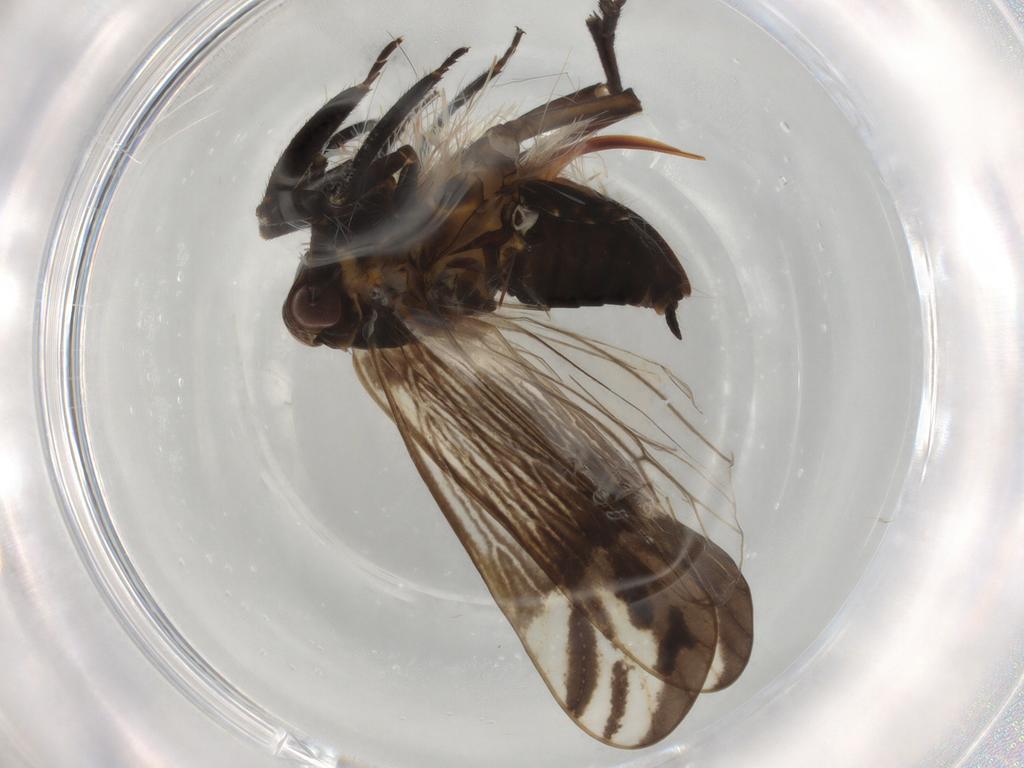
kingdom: Animalia
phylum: Arthropoda
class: Insecta
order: Hemiptera
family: Delphacidae
